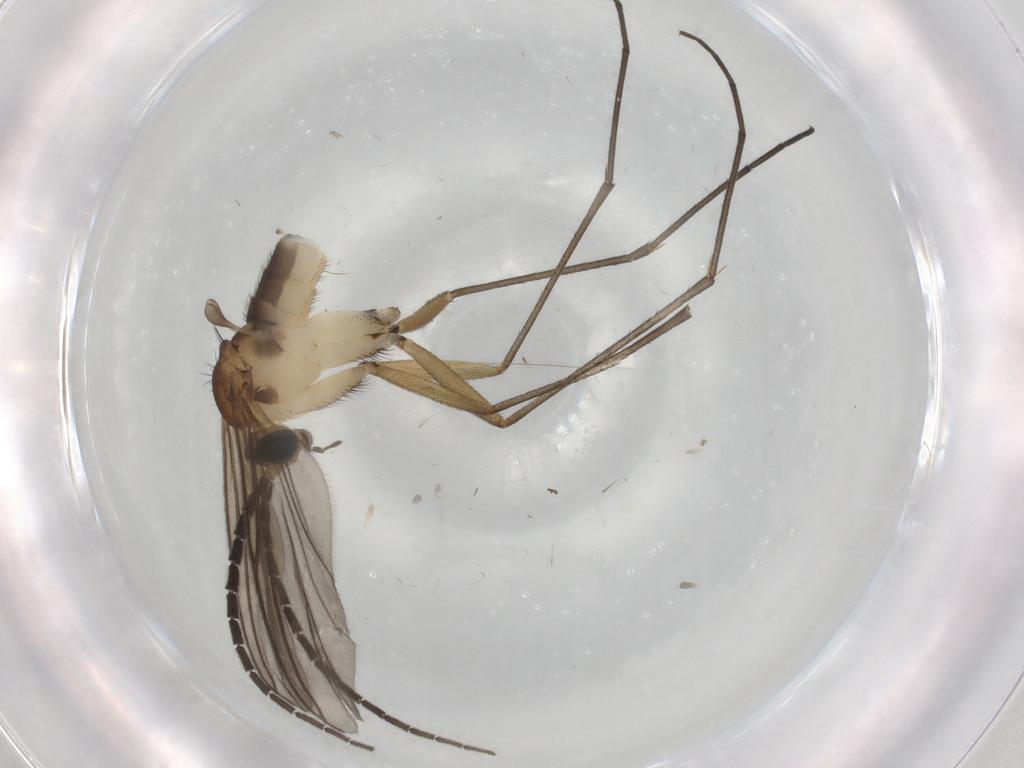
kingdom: Animalia
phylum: Arthropoda
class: Insecta
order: Diptera
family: Sciaridae
